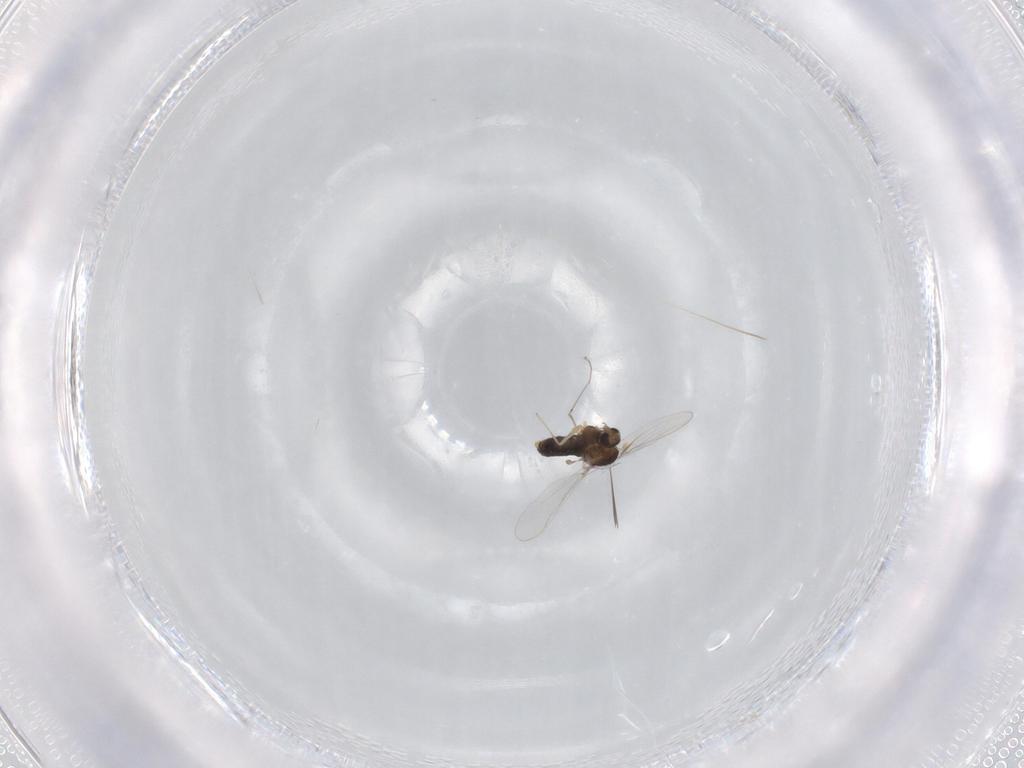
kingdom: Animalia
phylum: Arthropoda
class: Insecta
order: Diptera
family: Chironomidae
